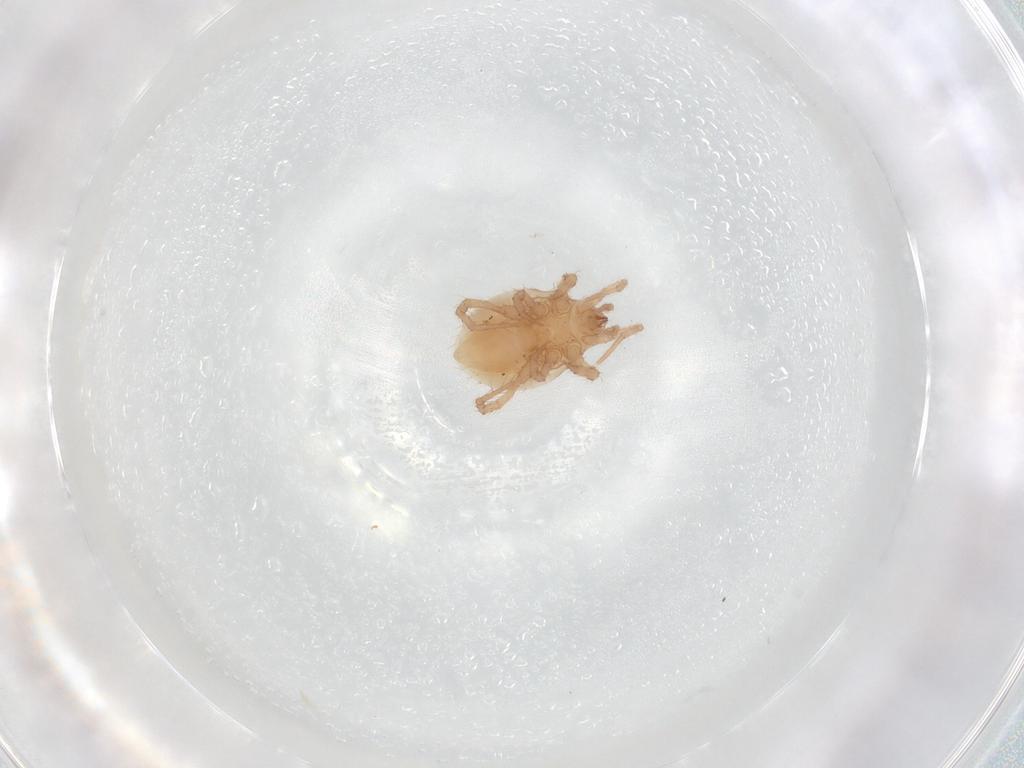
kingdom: Animalia
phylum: Arthropoda
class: Arachnida
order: Mesostigmata
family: Parasitidae
